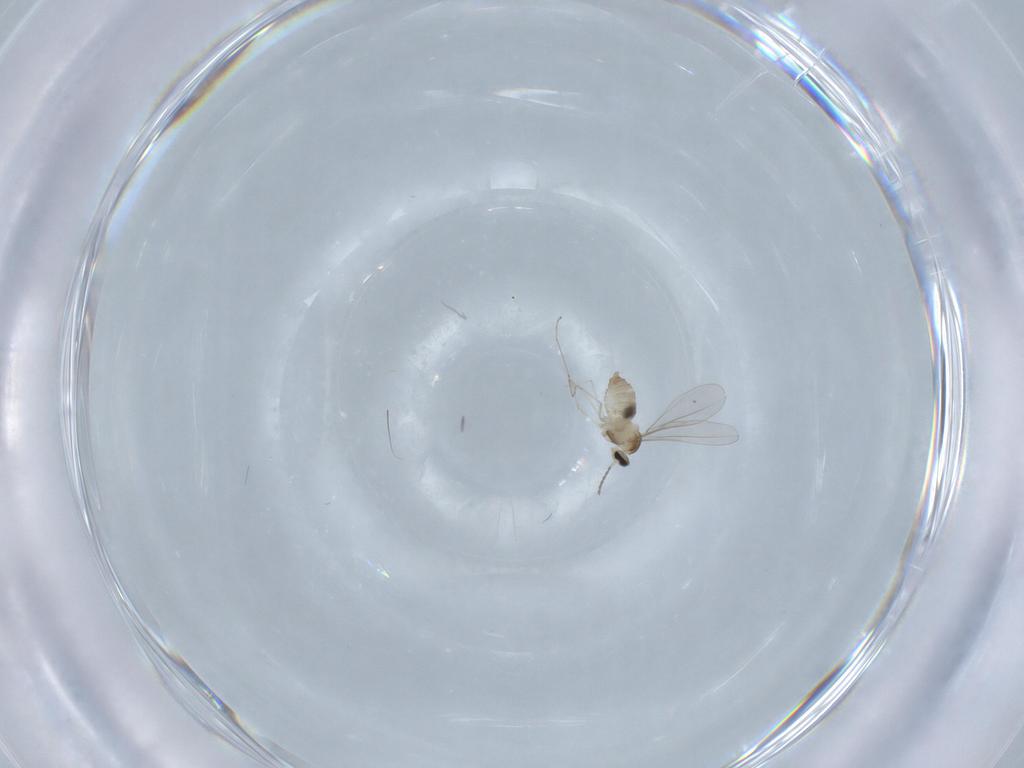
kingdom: Animalia
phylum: Arthropoda
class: Insecta
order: Diptera
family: Cecidomyiidae
